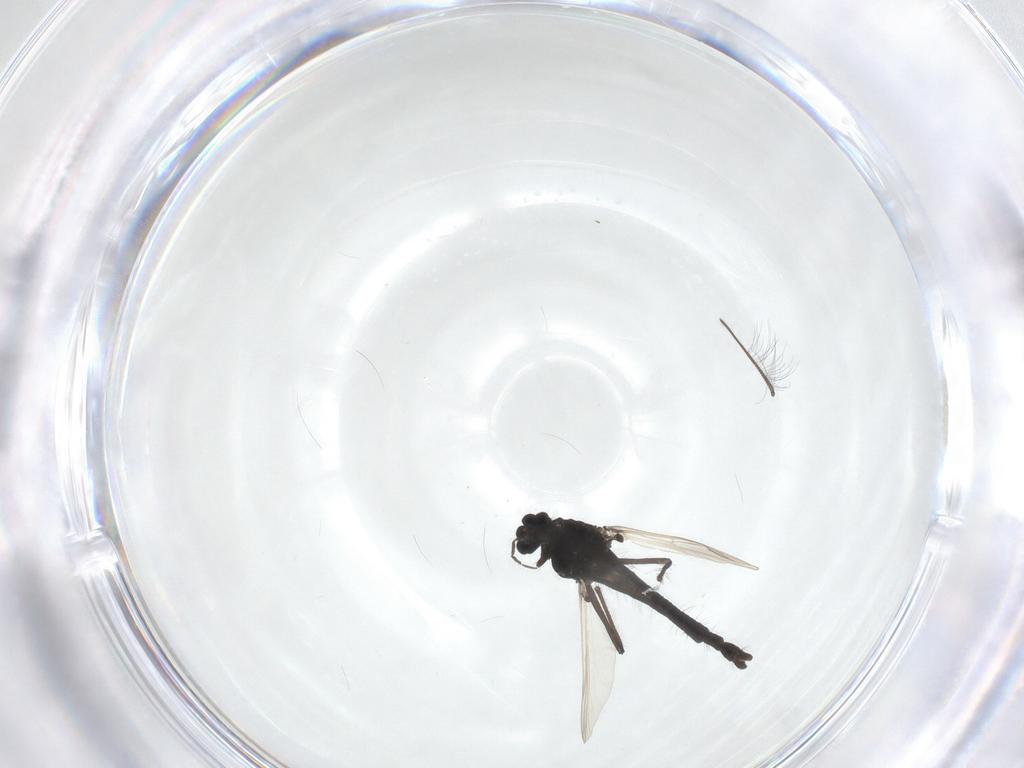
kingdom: Animalia
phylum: Arthropoda
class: Insecta
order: Diptera
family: Chironomidae
